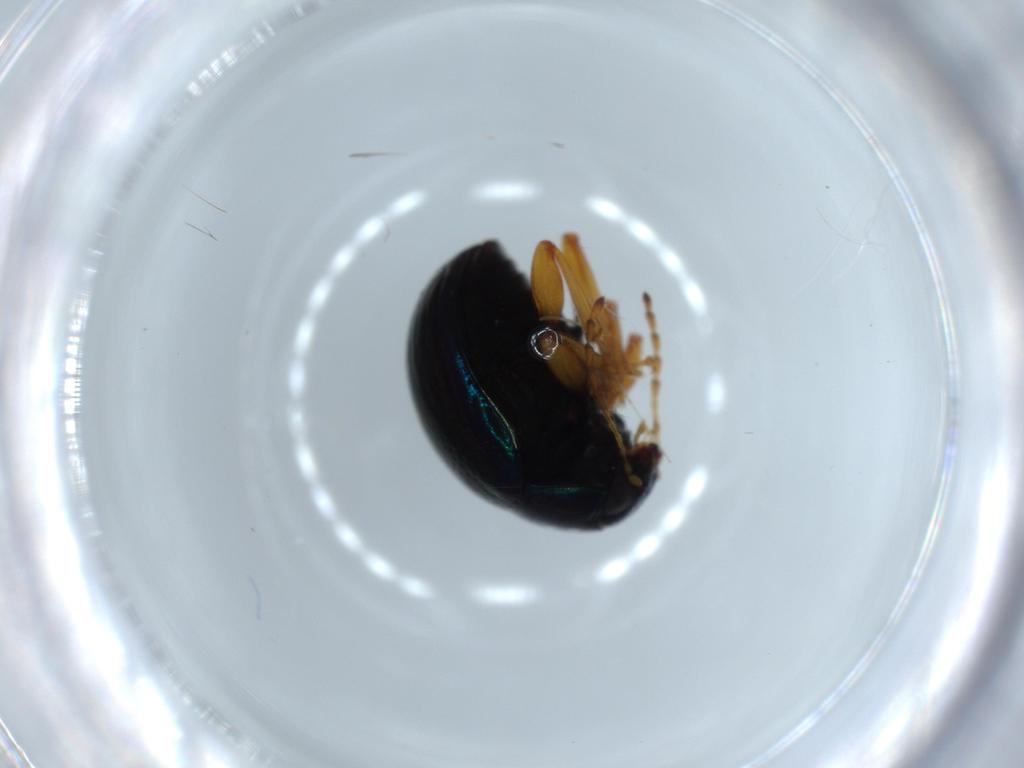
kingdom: Animalia
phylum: Arthropoda
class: Insecta
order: Coleoptera
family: Chrysomelidae
